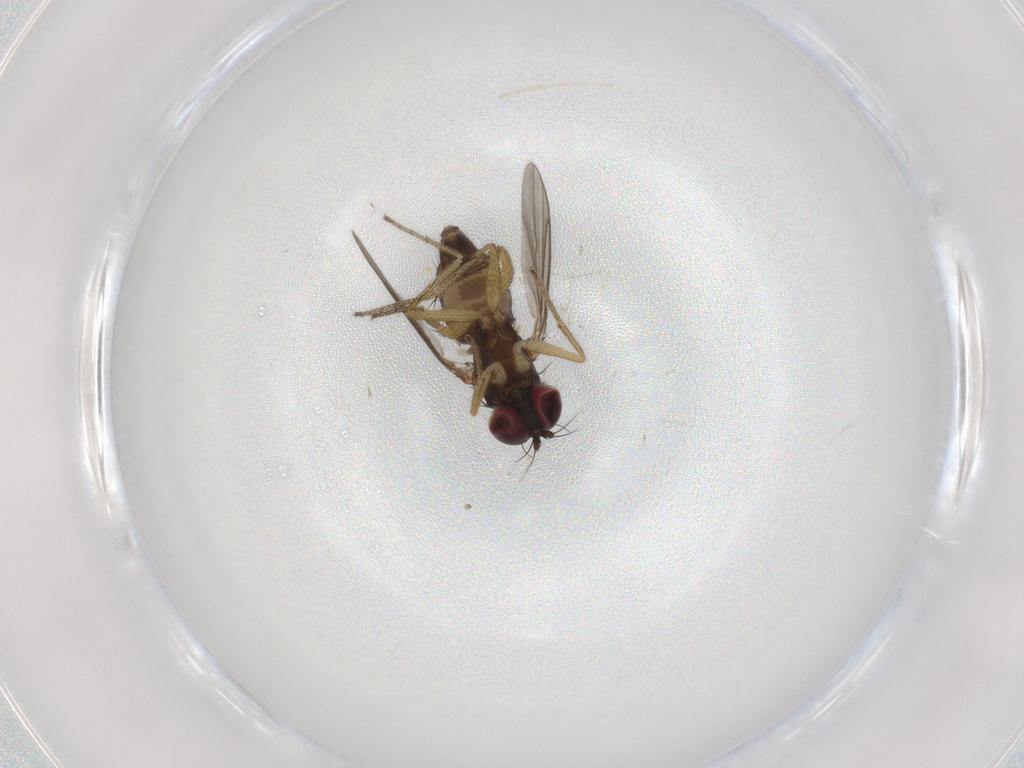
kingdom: Animalia
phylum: Arthropoda
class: Insecta
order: Diptera
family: Dolichopodidae
